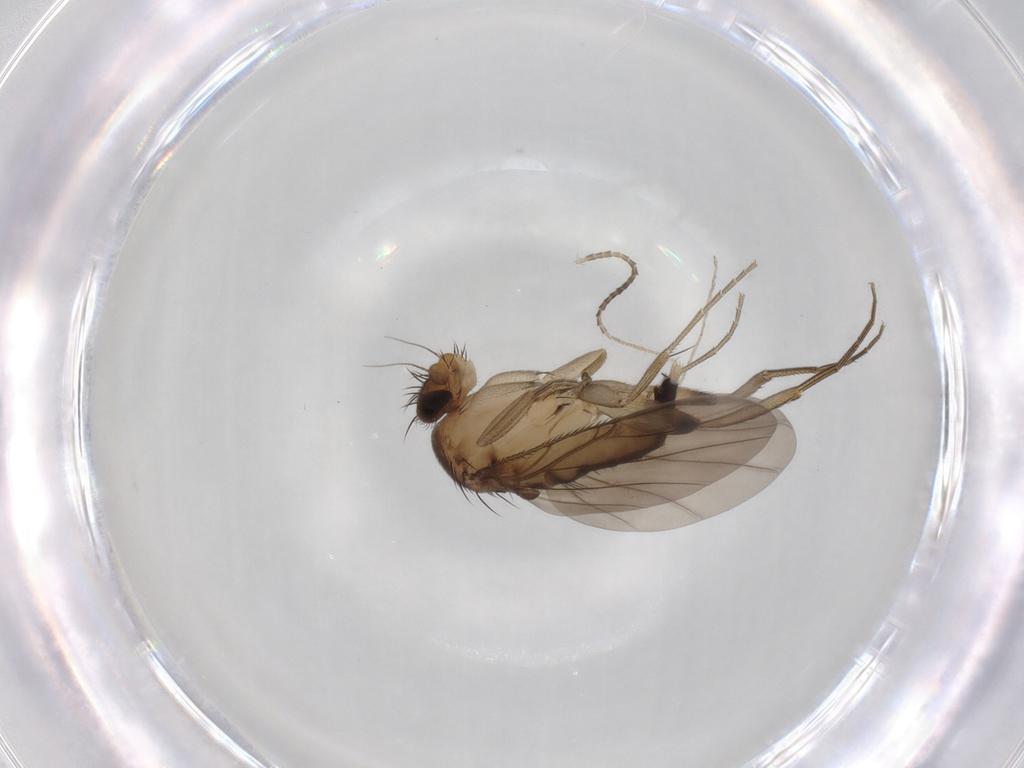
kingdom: Animalia
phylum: Arthropoda
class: Insecta
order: Diptera
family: Phoridae
